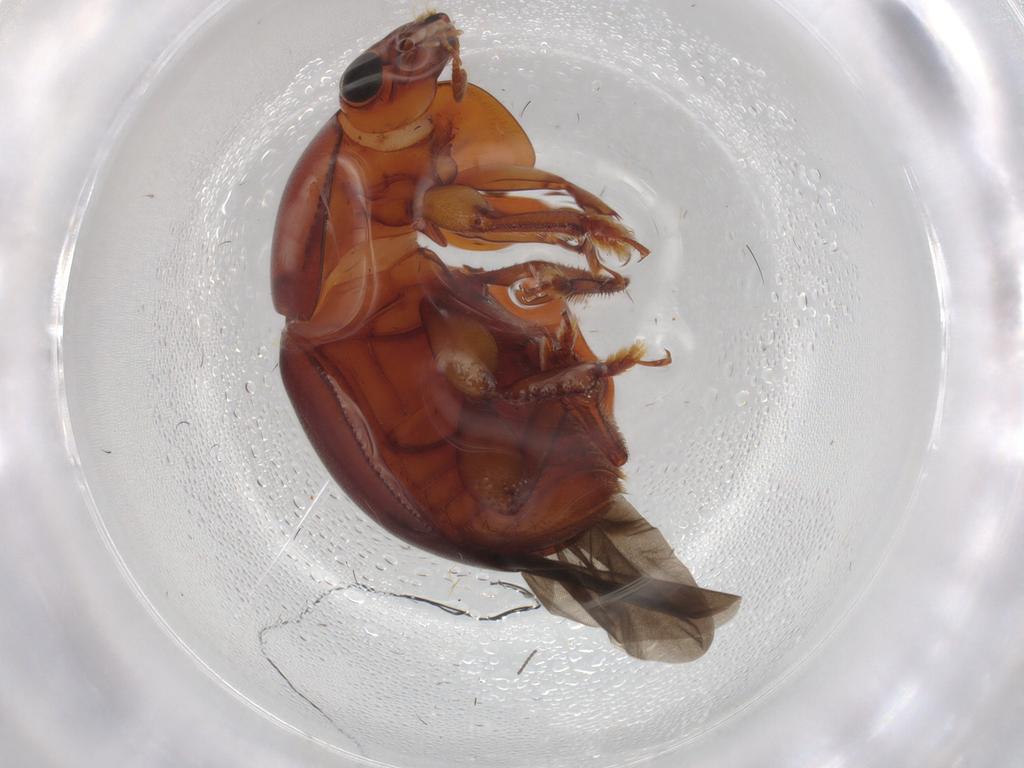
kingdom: Animalia
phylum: Arthropoda
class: Insecta
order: Coleoptera
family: Nitidulidae
